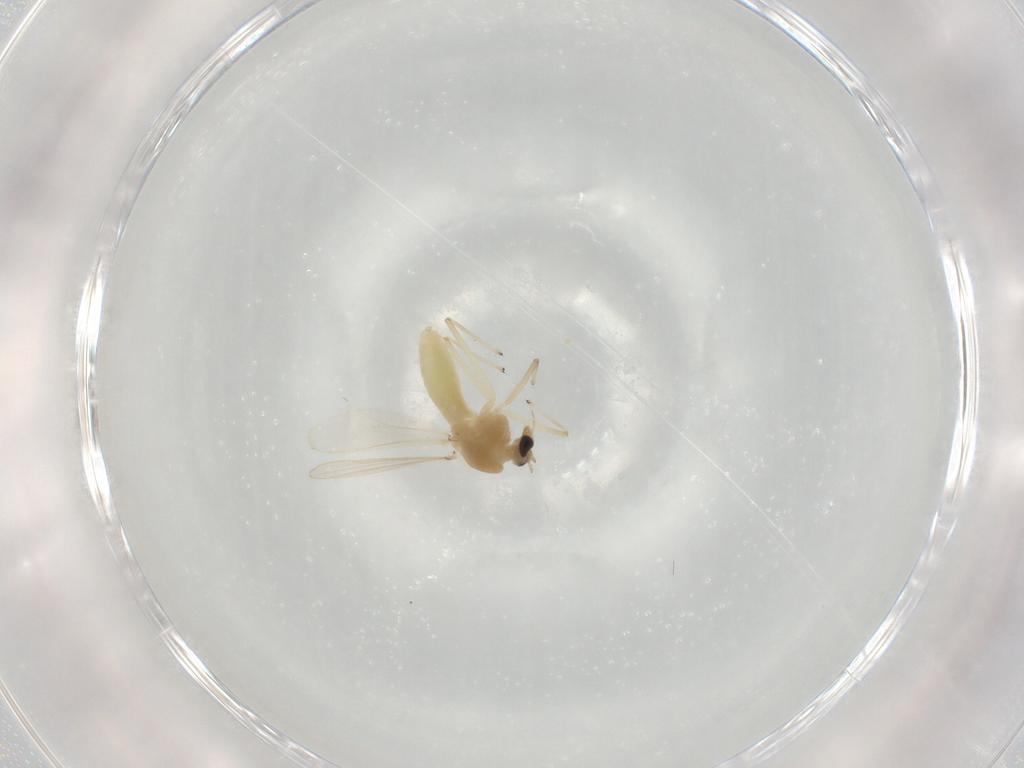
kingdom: Animalia
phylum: Arthropoda
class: Insecta
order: Diptera
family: Chironomidae
